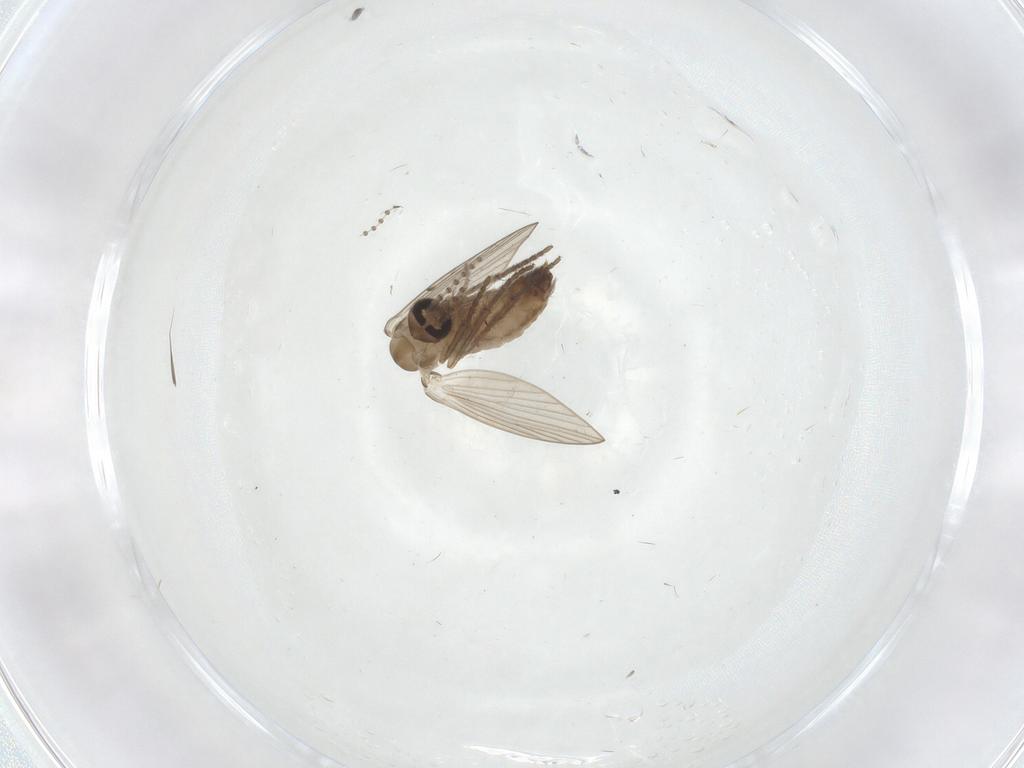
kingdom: Animalia
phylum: Arthropoda
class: Insecta
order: Diptera
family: Psychodidae
